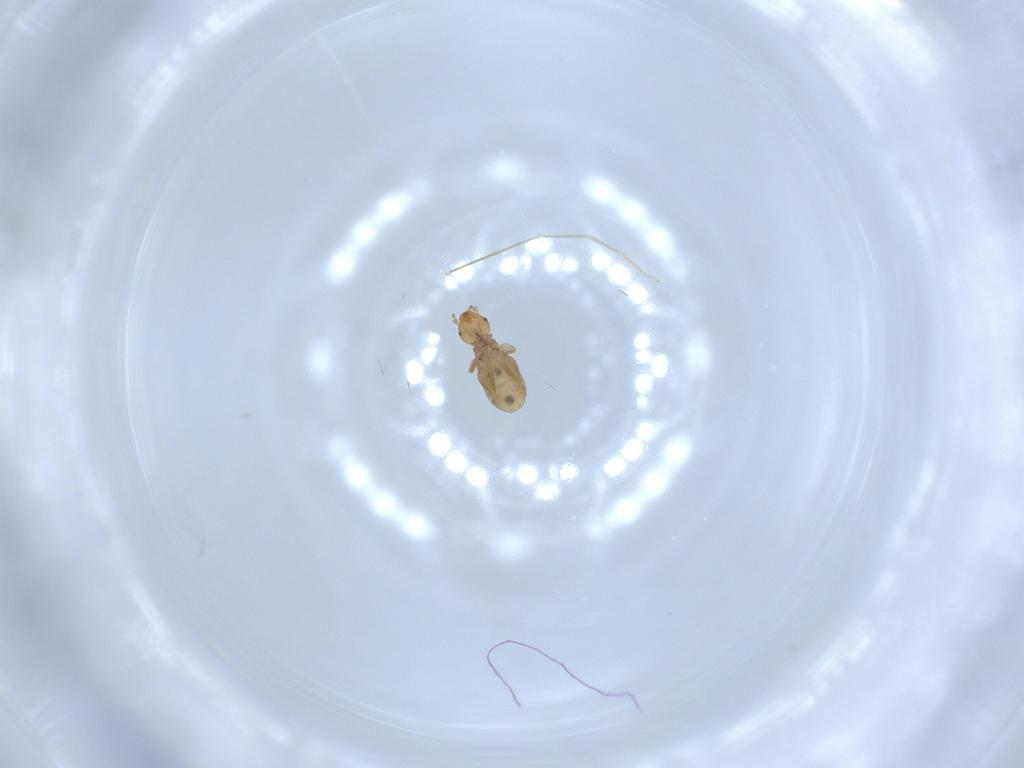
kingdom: Animalia
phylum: Arthropoda
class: Insecta
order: Psocodea
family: Liposcelididae
